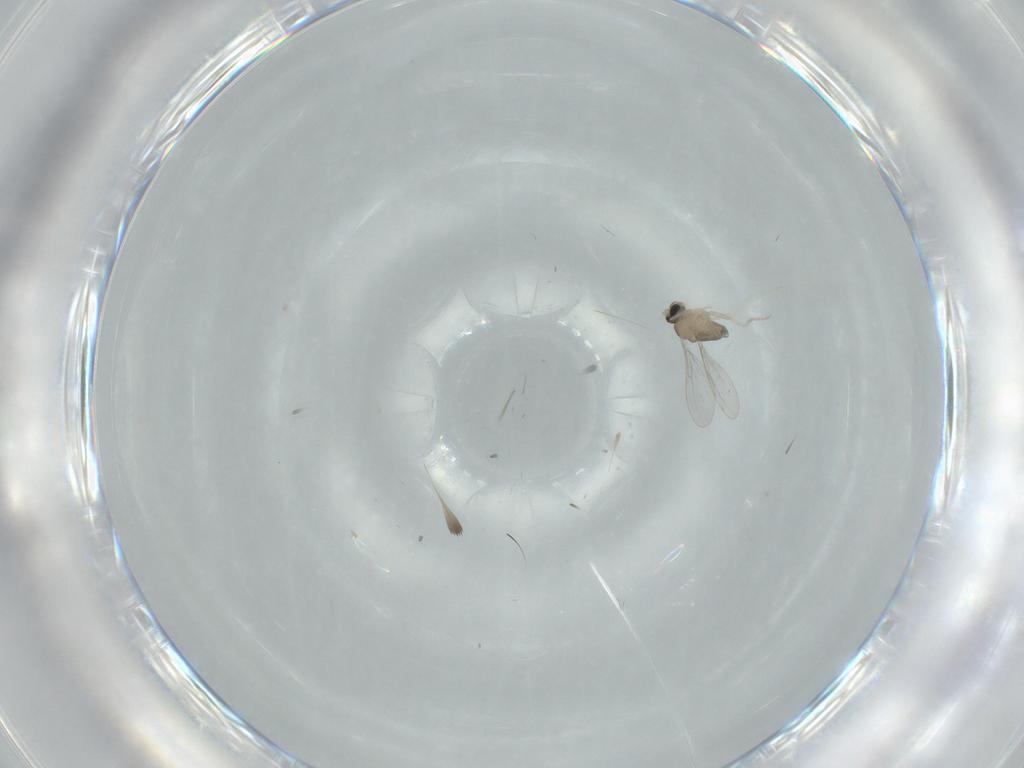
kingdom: Animalia
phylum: Arthropoda
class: Insecta
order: Diptera
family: Cecidomyiidae
